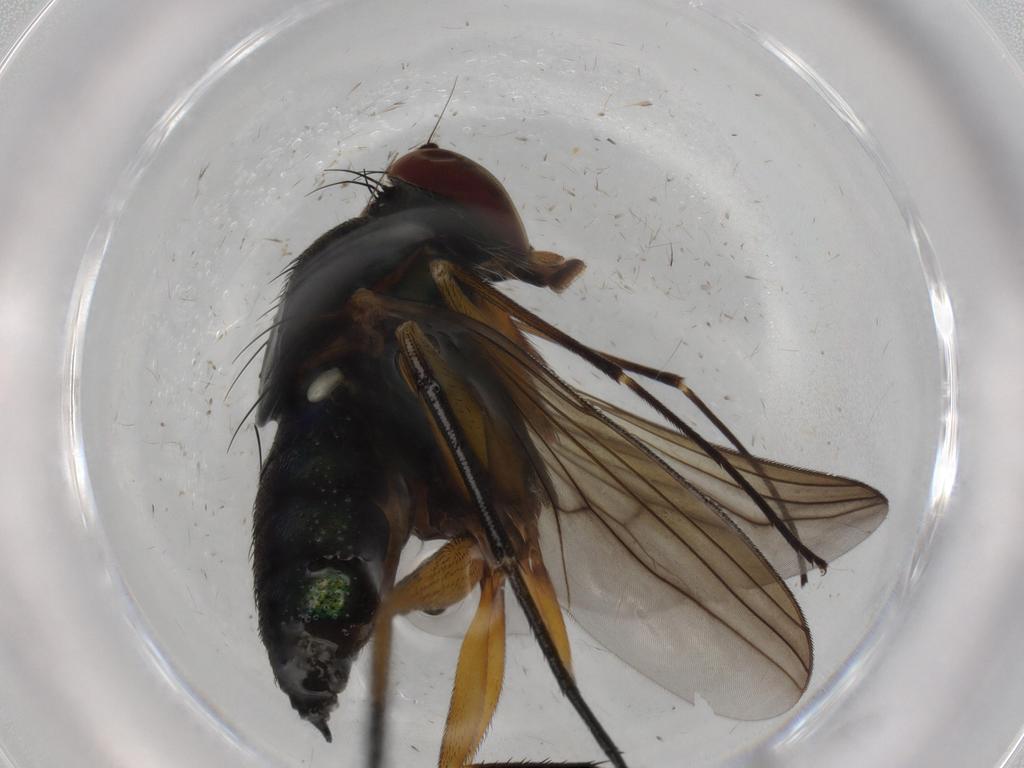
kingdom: Animalia
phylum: Arthropoda
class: Insecta
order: Diptera
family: Dolichopodidae
